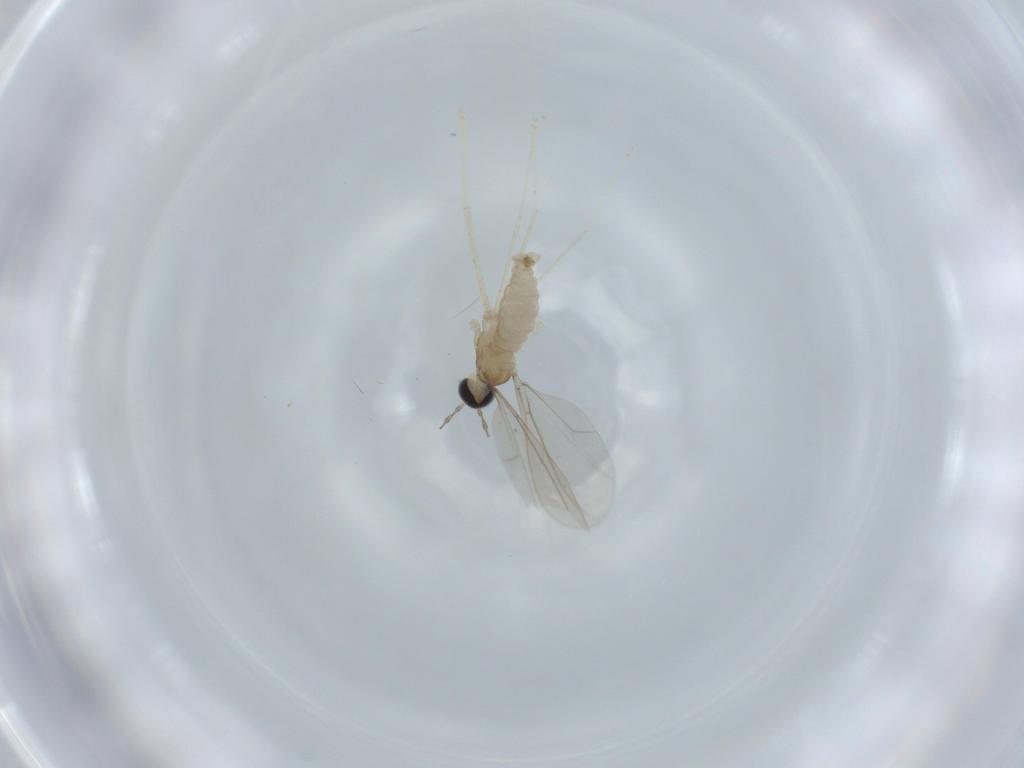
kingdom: Animalia
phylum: Arthropoda
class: Insecta
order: Diptera
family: Cecidomyiidae
